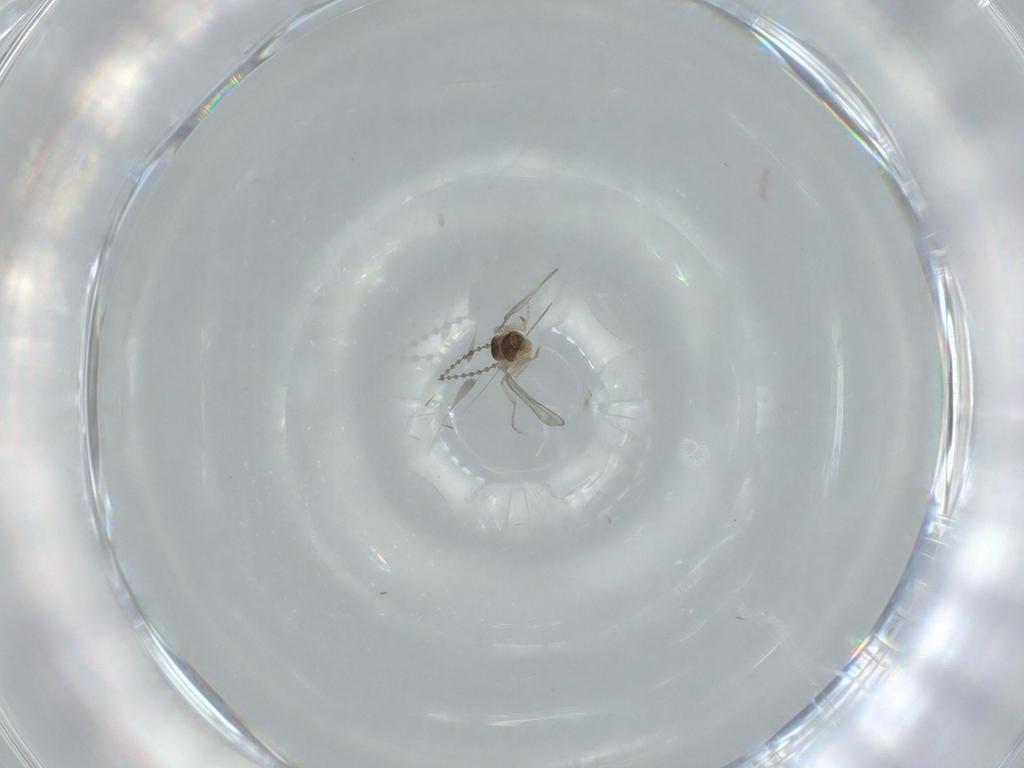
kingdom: Animalia
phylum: Arthropoda
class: Insecta
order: Diptera
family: Cecidomyiidae
